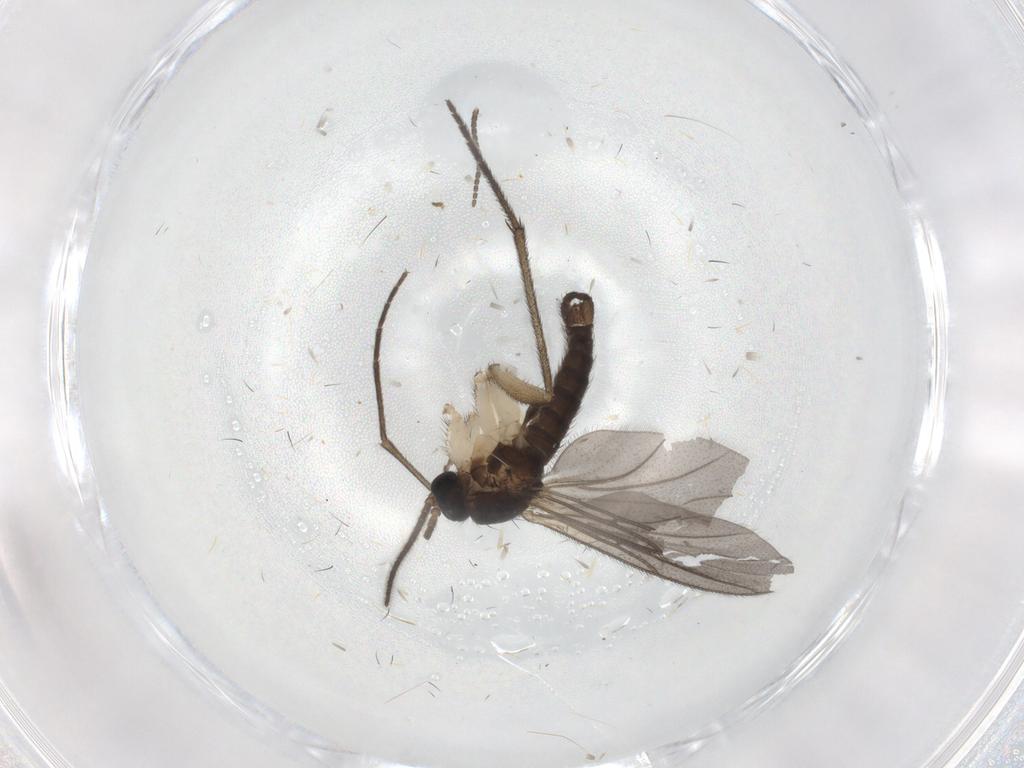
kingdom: Animalia
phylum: Arthropoda
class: Insecta
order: Diptera
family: Sciaridae
